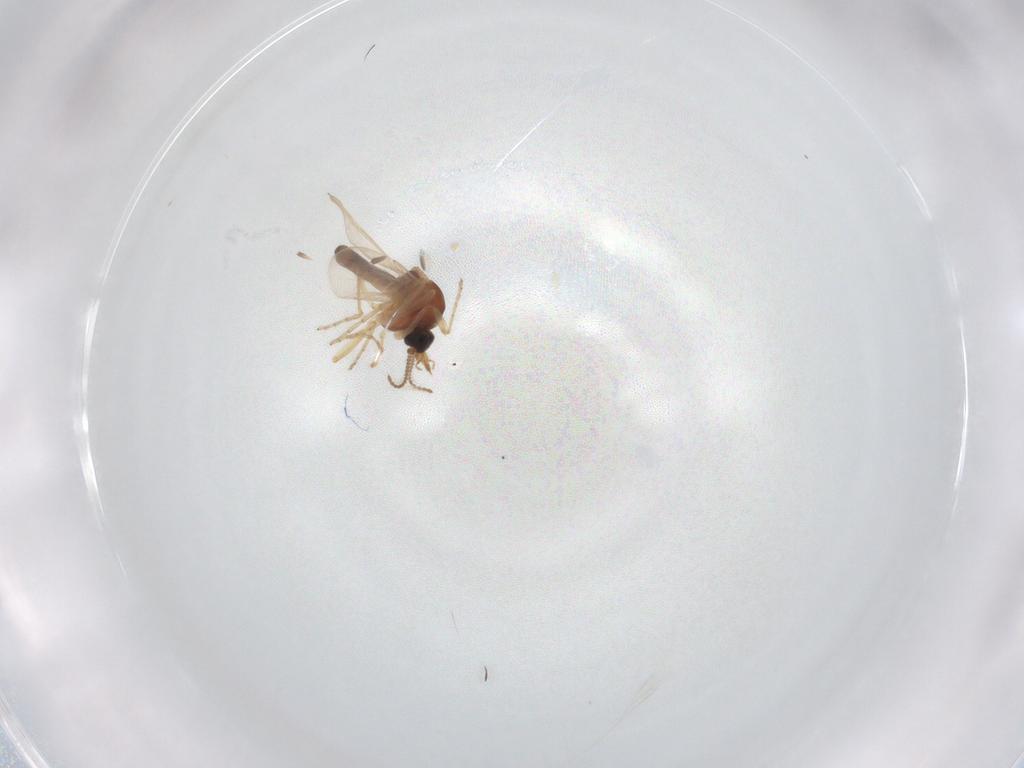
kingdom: Animalia
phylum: Arthropoda
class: Insecta
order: Diptera
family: Ceratopogonidae
